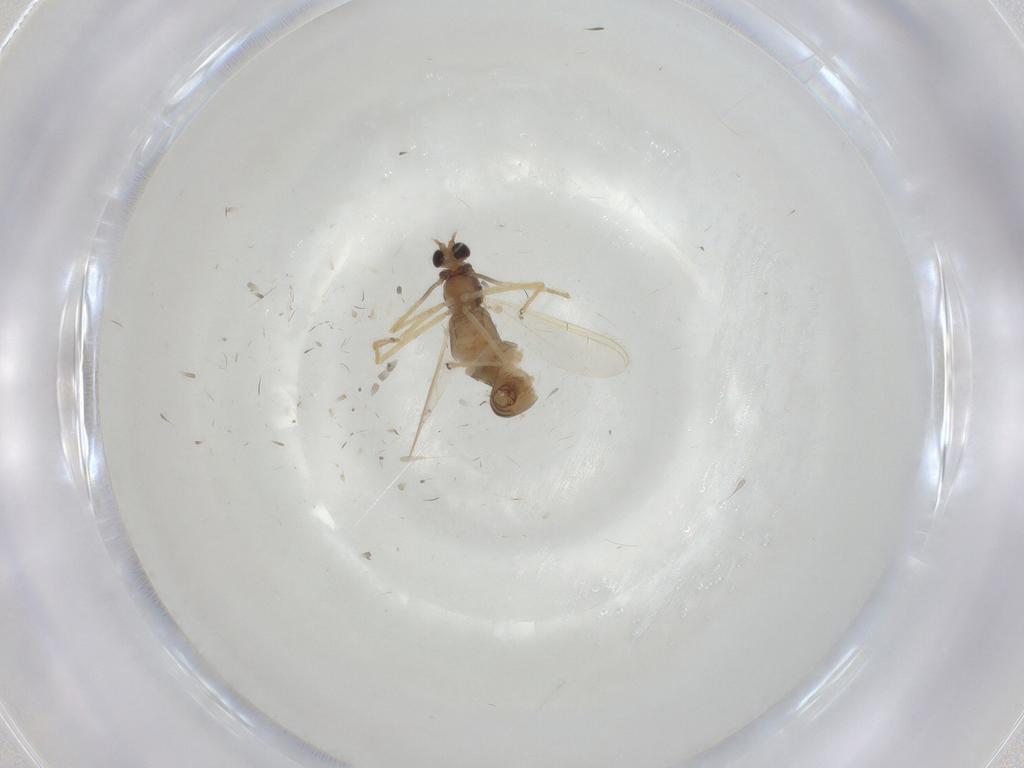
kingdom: Animalia
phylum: Arthropoda
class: Insecta
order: Diptera
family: Chironomidae
